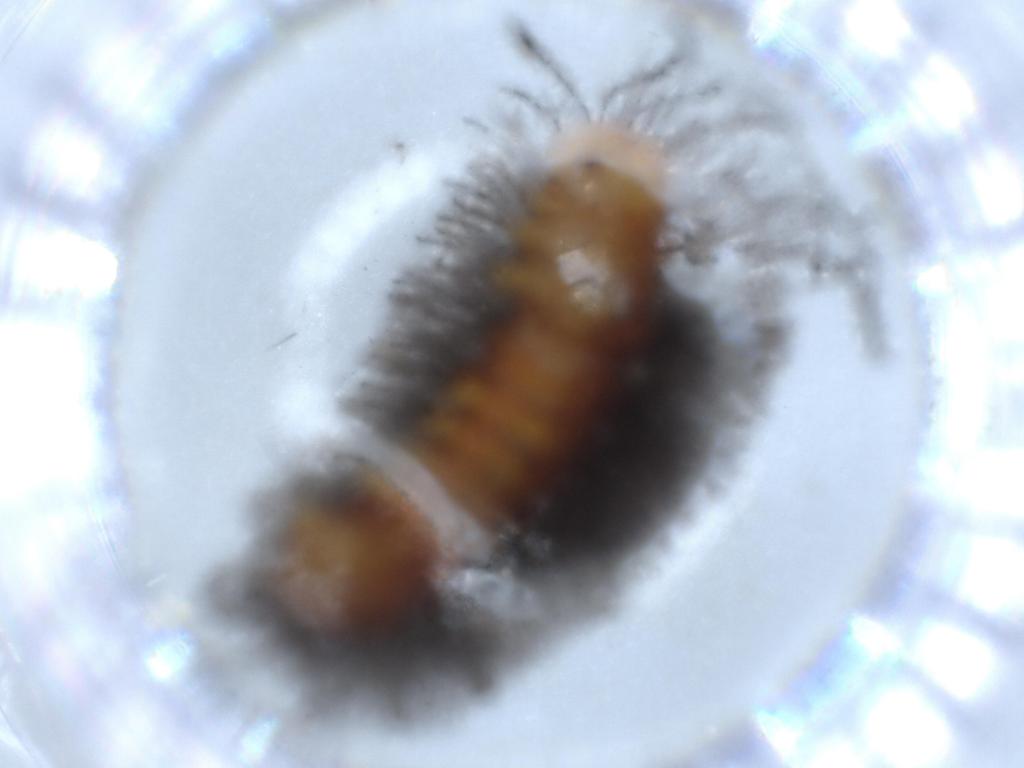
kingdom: Animalia
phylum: Arthropoda
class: Insecta
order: Diptera
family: Cecidomyiidae
